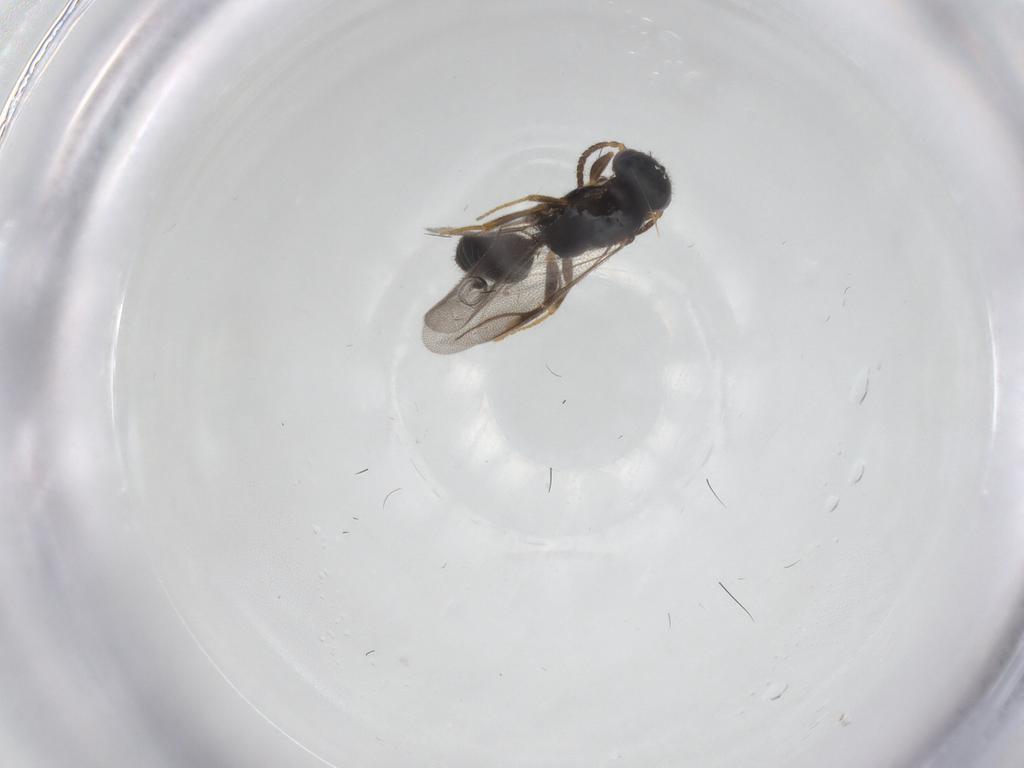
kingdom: Animalia
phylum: Arthropoda
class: Insecta
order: Hymenoptera
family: Bethylidae
